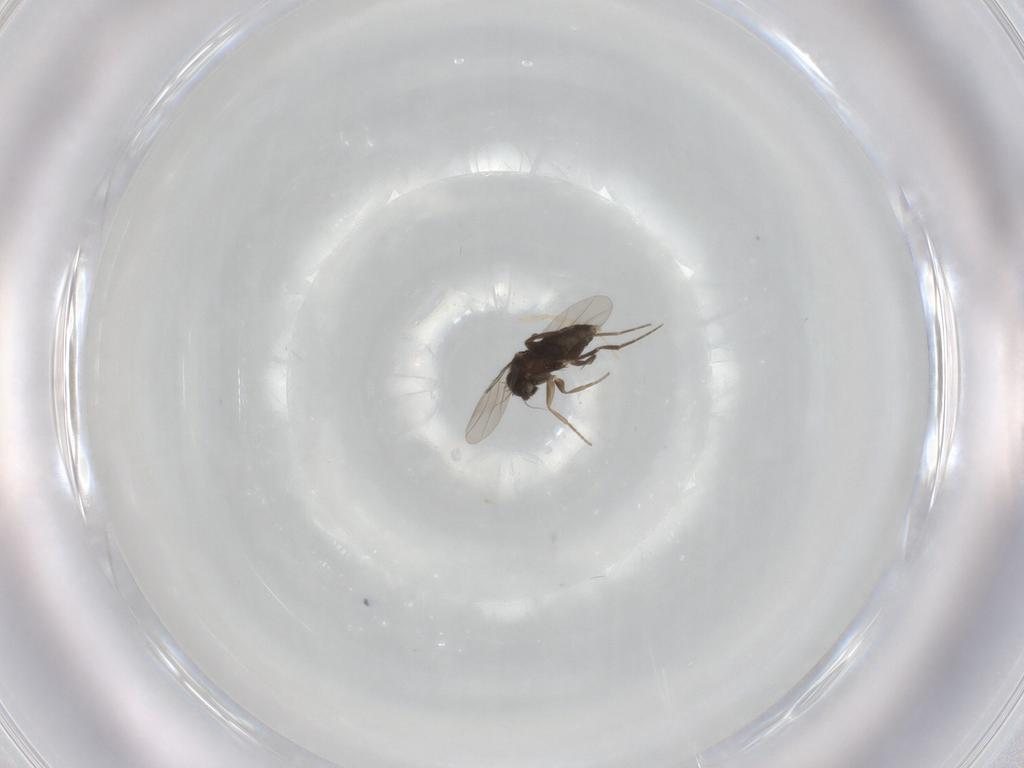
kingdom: Animalia
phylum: Arthropoda
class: Insecta
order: Diptera
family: Phoridae
